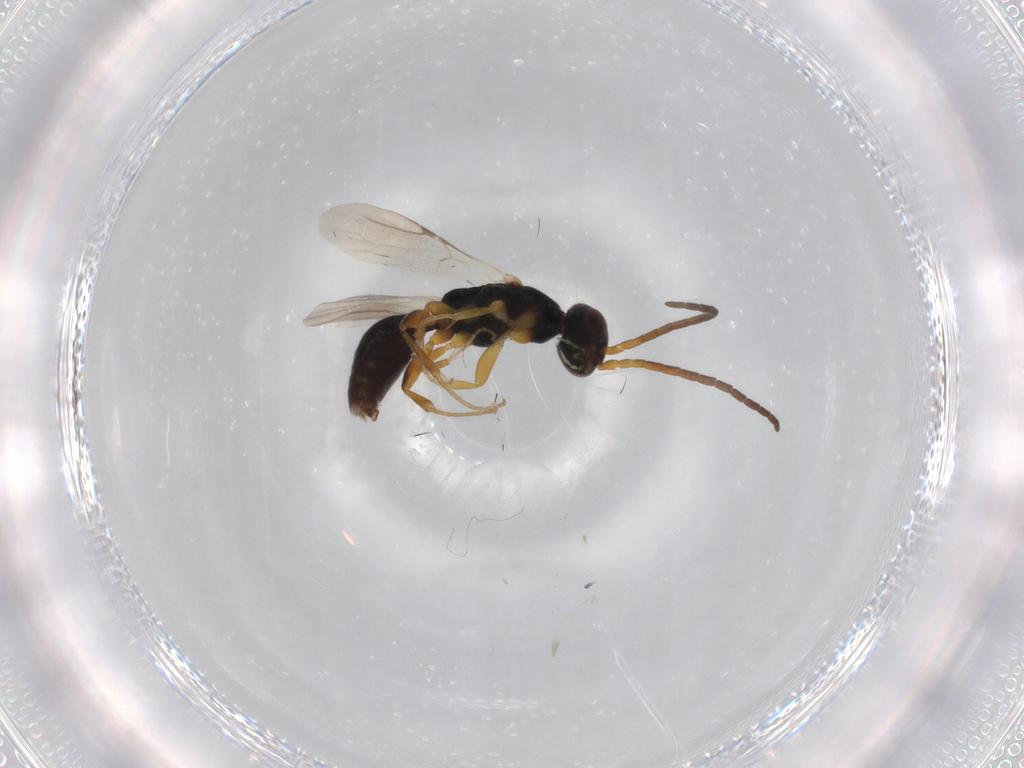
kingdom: Animalia
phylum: Arthropoda
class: Insecta
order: Hymenoptera
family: Bethylidae
